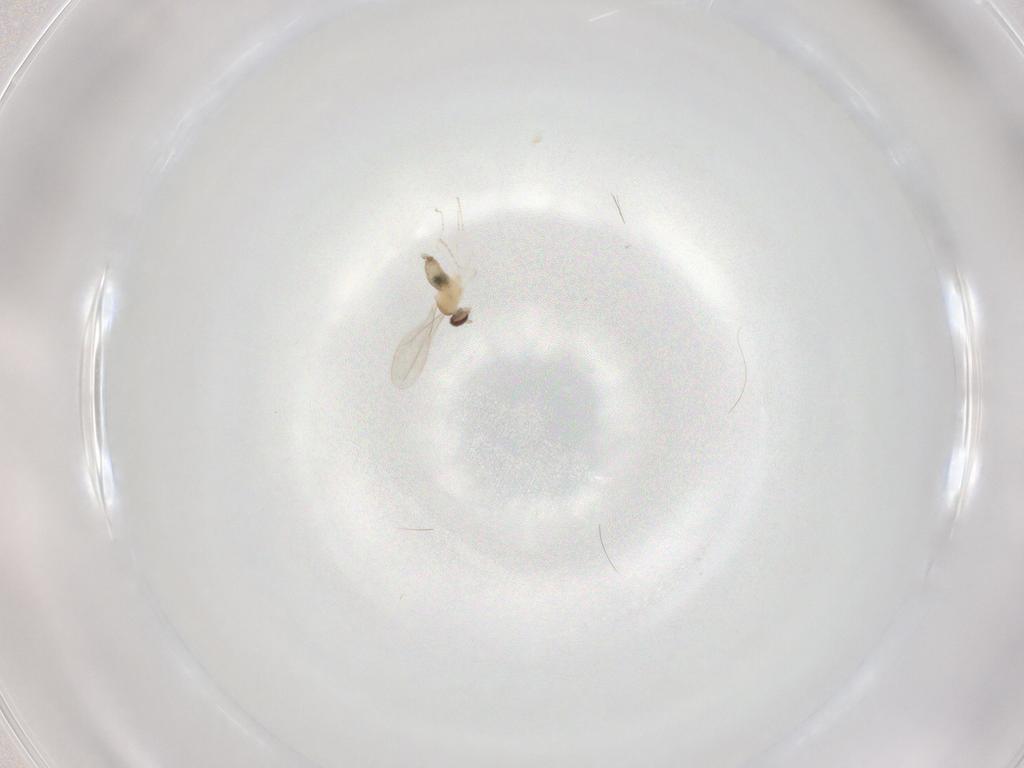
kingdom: Animalia
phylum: Arthropoda
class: Insecta
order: Diptera
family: Cecidomyiidae
